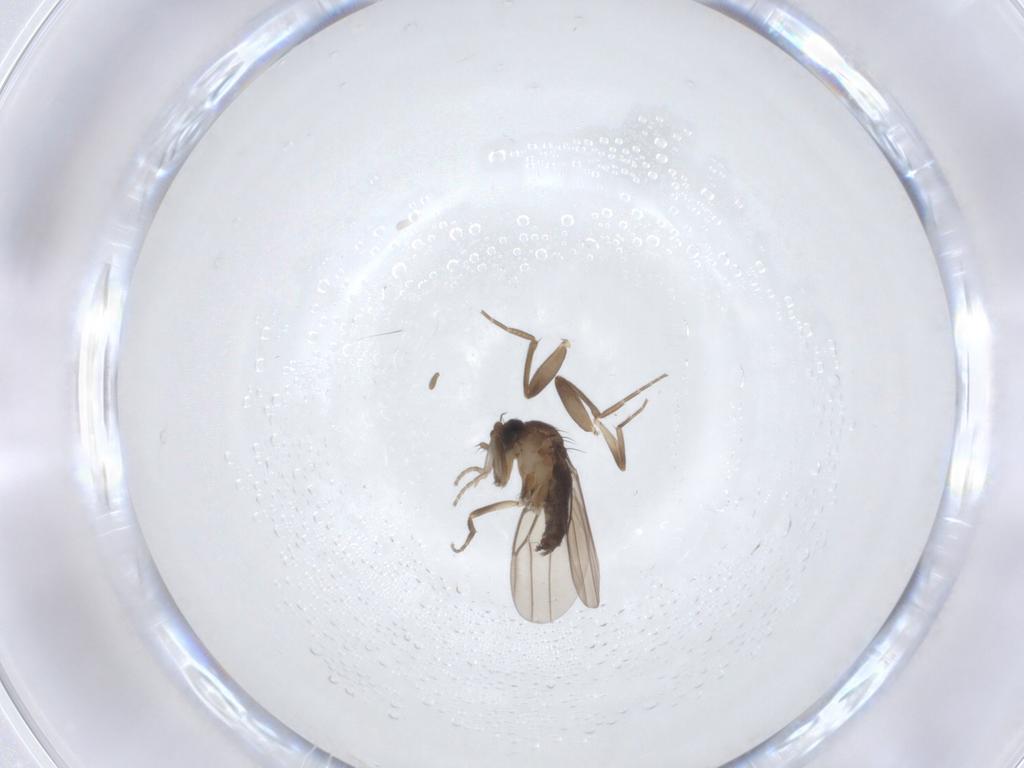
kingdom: Animalia
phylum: Arthropoda
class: Insecta
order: Diptera
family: Phoridae
